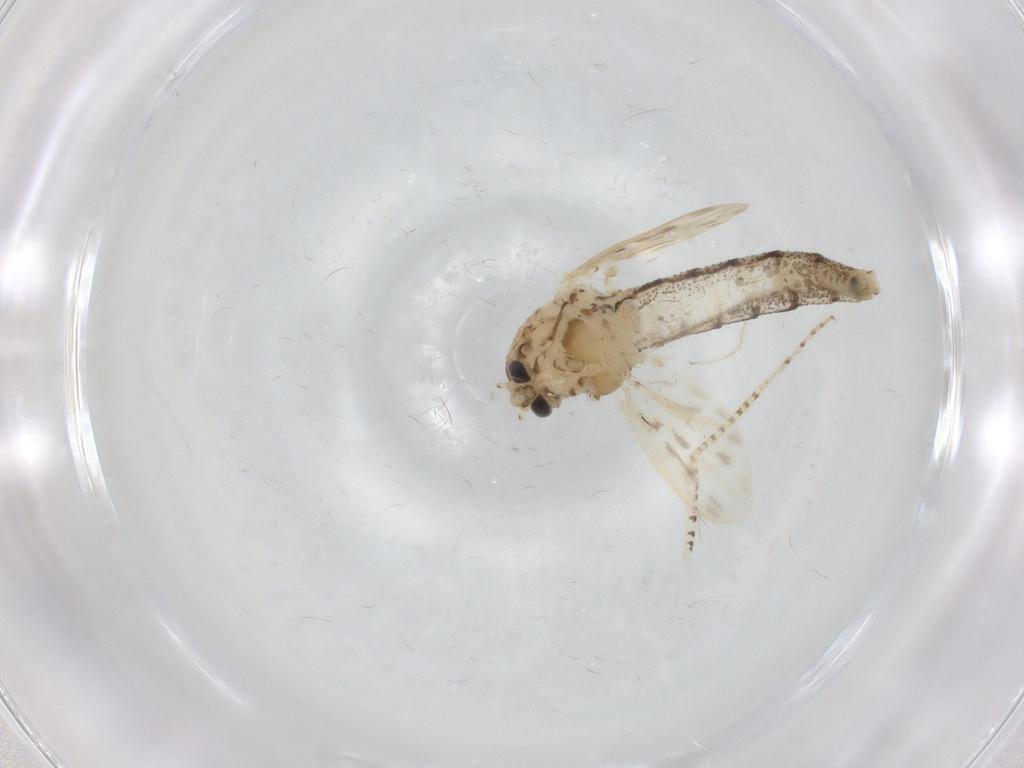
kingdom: Animalia
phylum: Arthropoda
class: Insecta
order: Diptera
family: Chaoboridae
